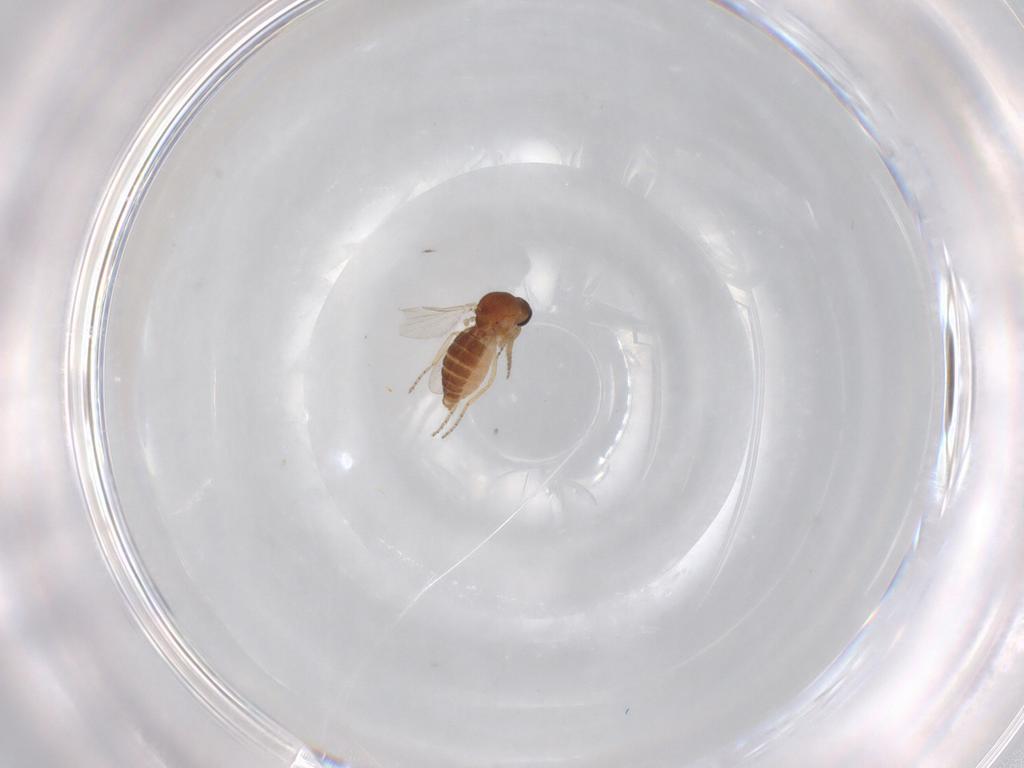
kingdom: Animalia
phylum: Arthropoda
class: Insecta
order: Diptera
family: Ceratopogonidae
